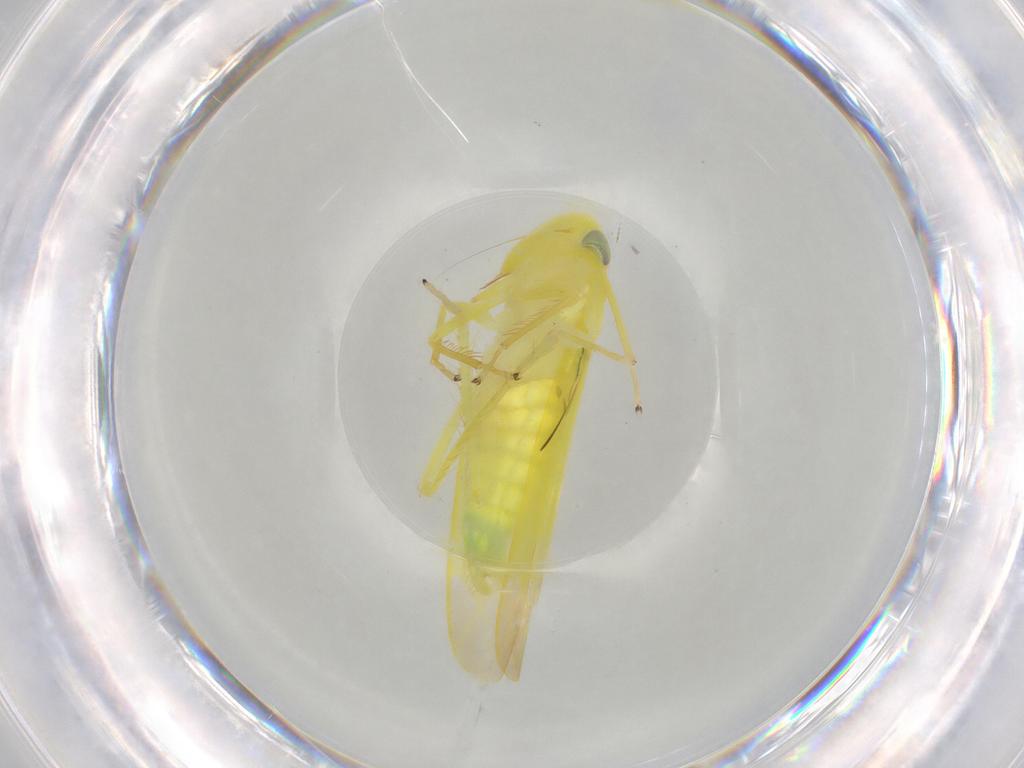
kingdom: Animalia
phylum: Arthropoda
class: Insecta
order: Hemiptera
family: Cicadellidae
